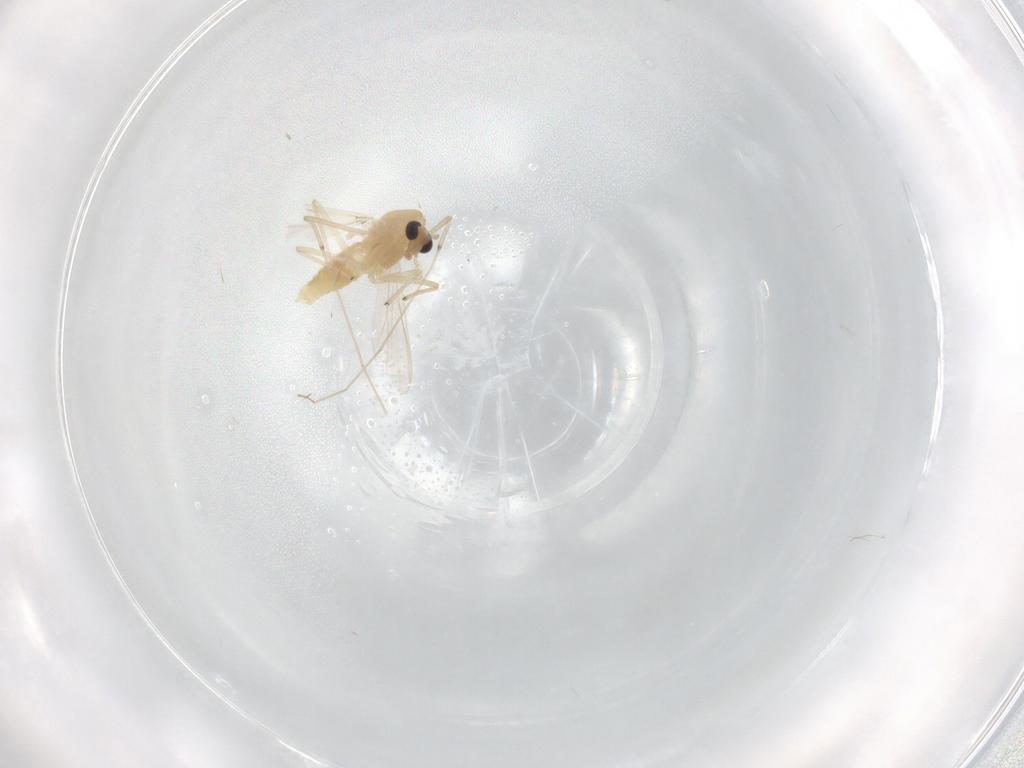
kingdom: Animalia
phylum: Arthropoda
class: Insecta
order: Diptera
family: Chironomidae
